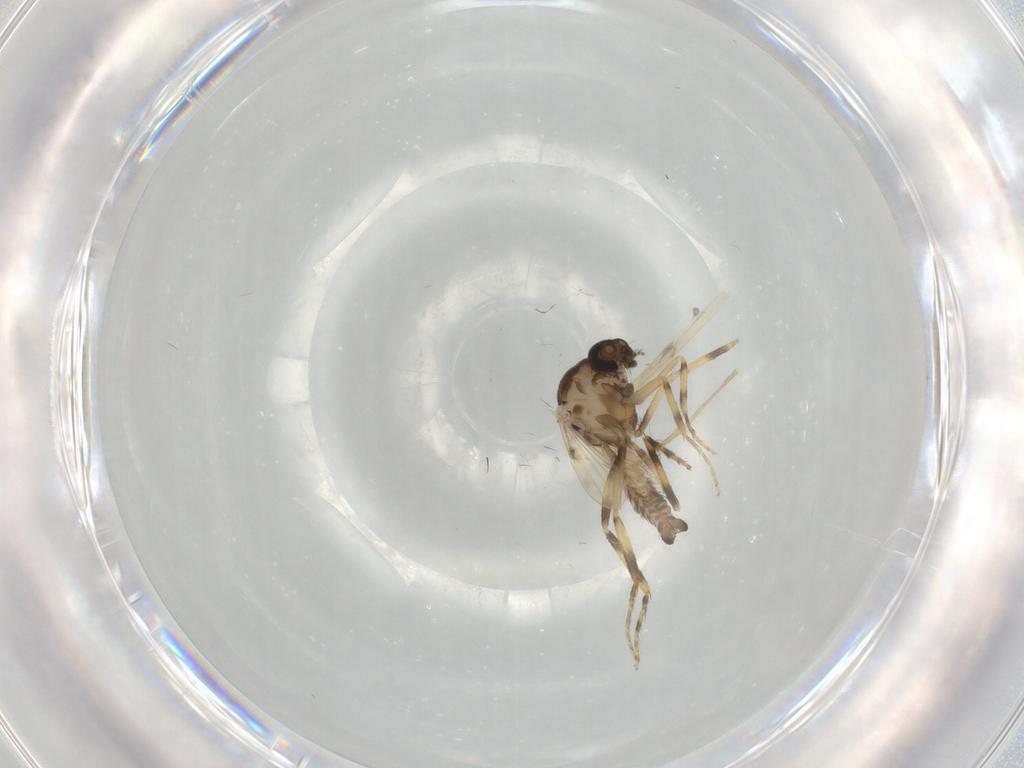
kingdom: Animalia
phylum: Arthropoda
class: Insecta
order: Diptera
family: Ceratopogonidae
